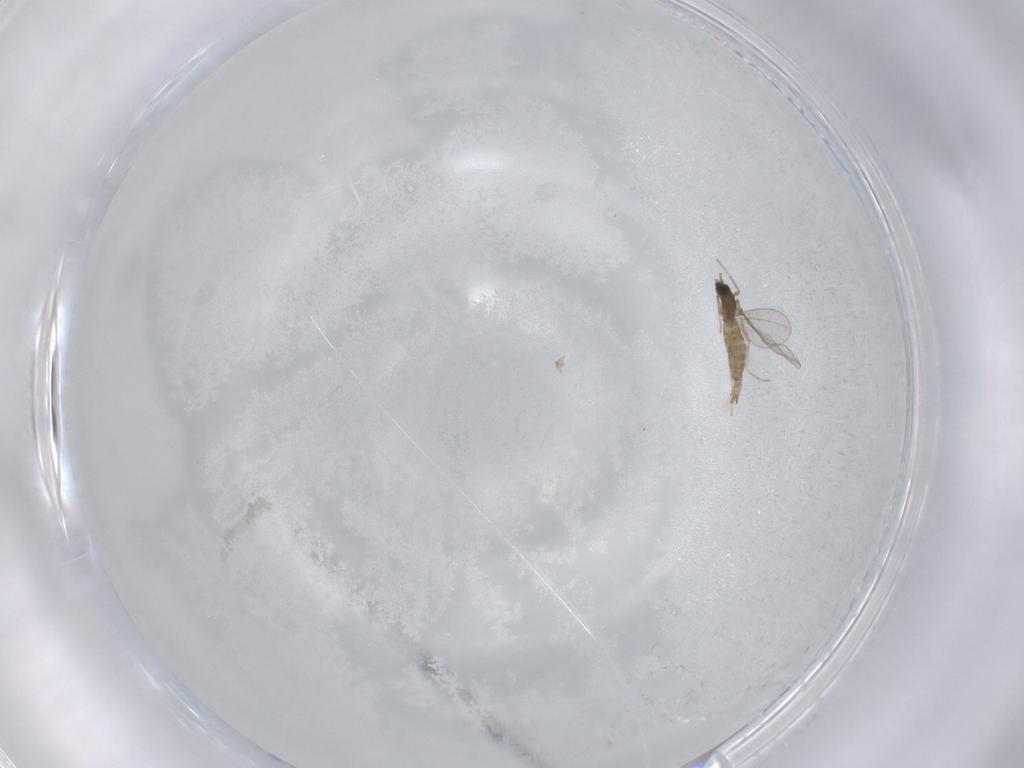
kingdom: Animalia
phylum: Arthropoda
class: Insecta
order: Diptera
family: Cecidomyiidae
